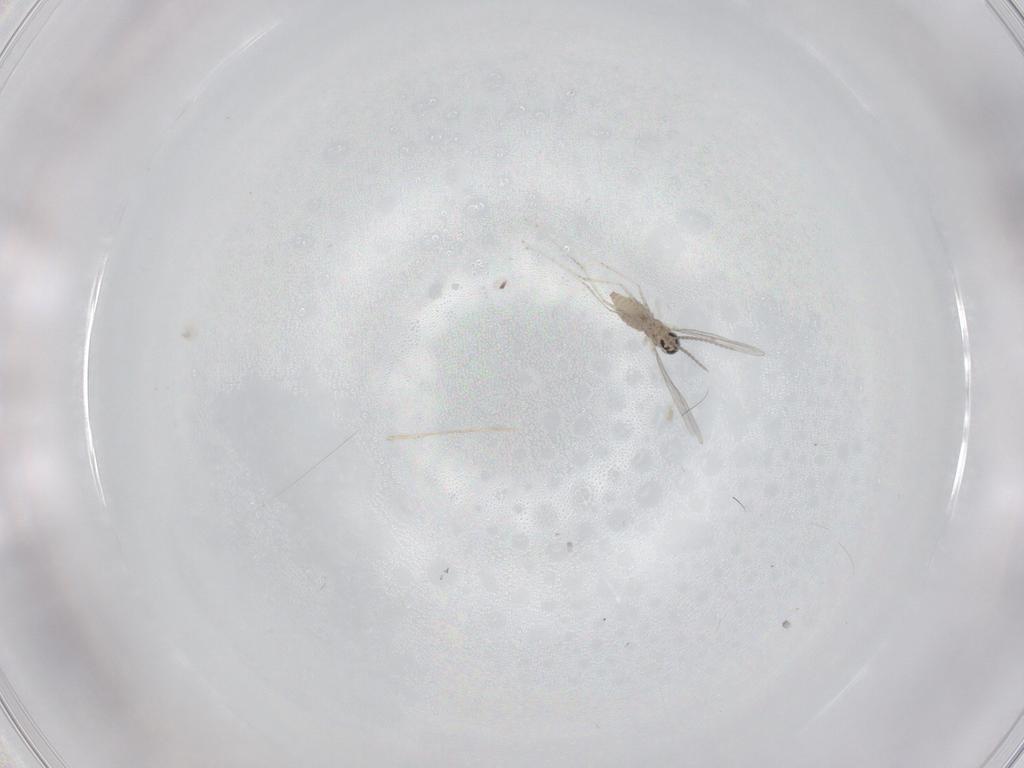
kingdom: Animalia
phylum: Arthropoda
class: Insecta
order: Diptera
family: Cecidomyiidae
